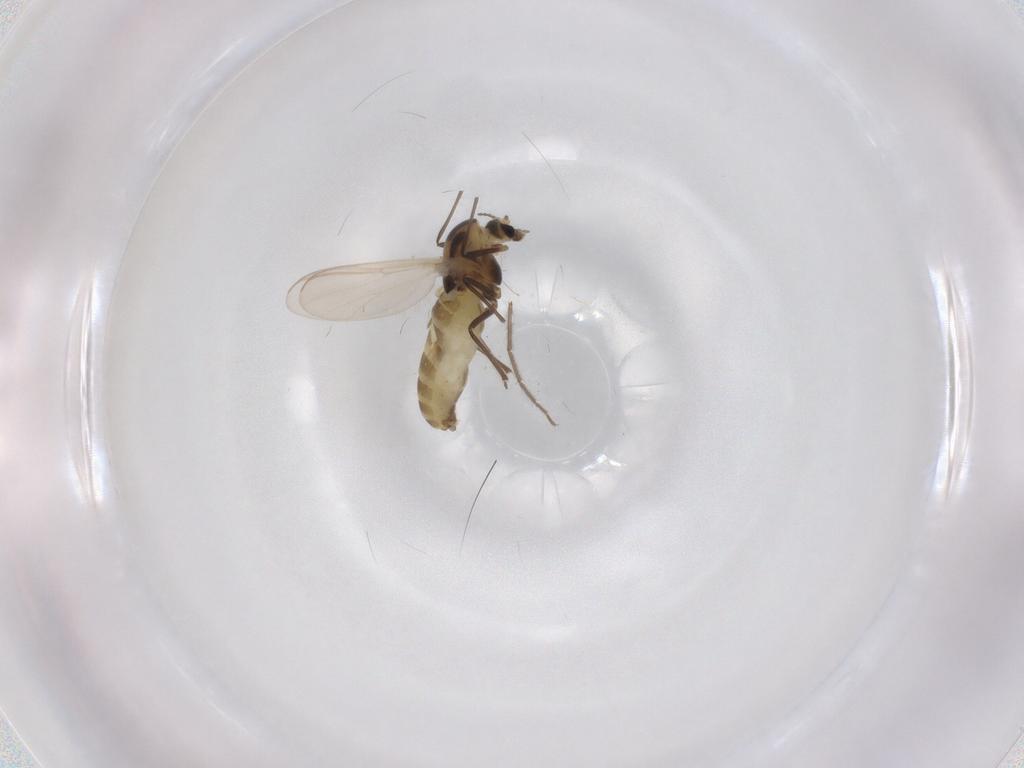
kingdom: Animalia
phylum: Arthropoda
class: Insecta
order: Diptera
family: Chironomidae
